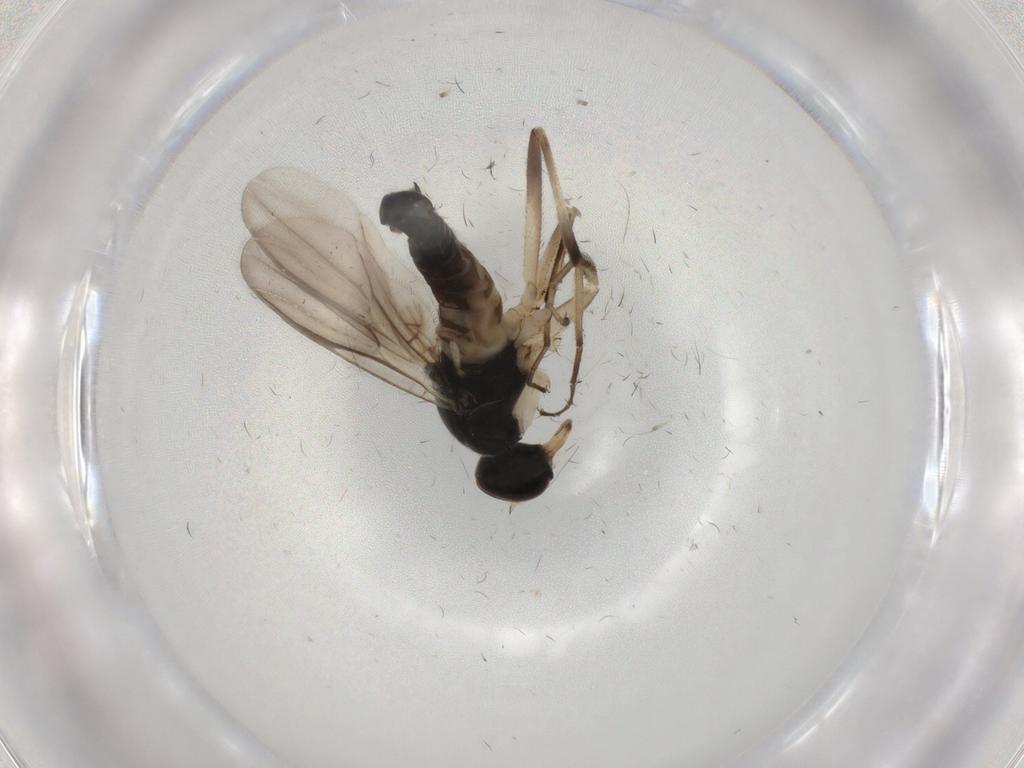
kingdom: Animalia
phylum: Arthropoda
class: Insecta
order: Diptera
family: Hybotidae
